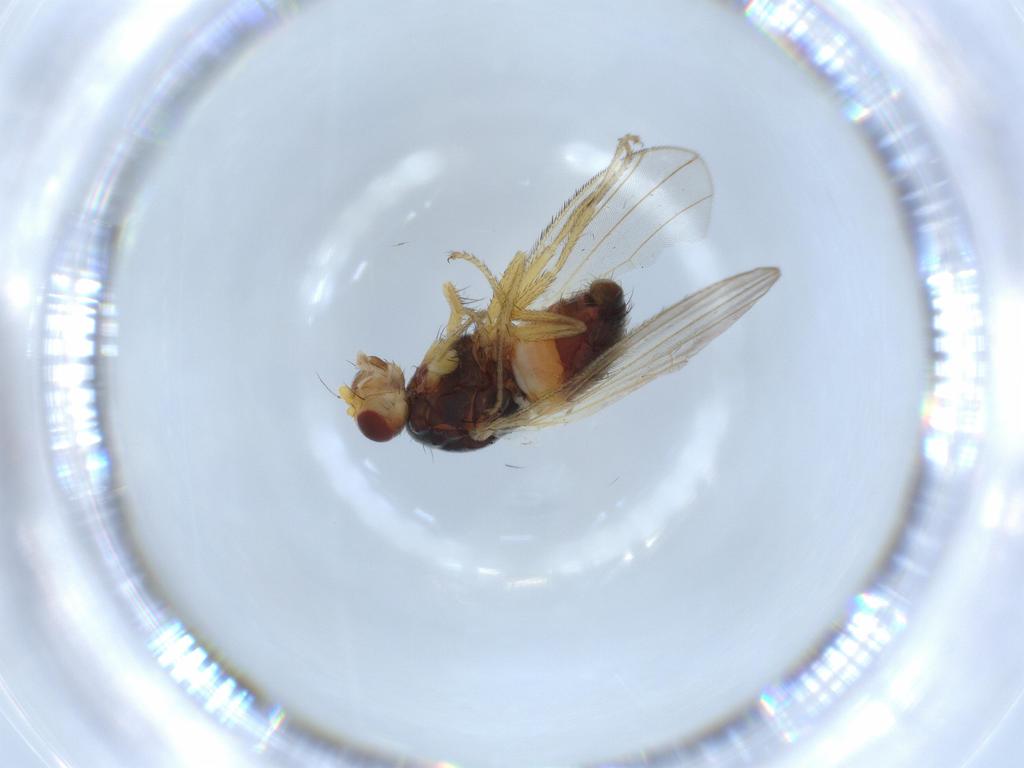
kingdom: Animalia
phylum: Arthropoda
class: Insecta
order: Diptera
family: Heleomyzidae
